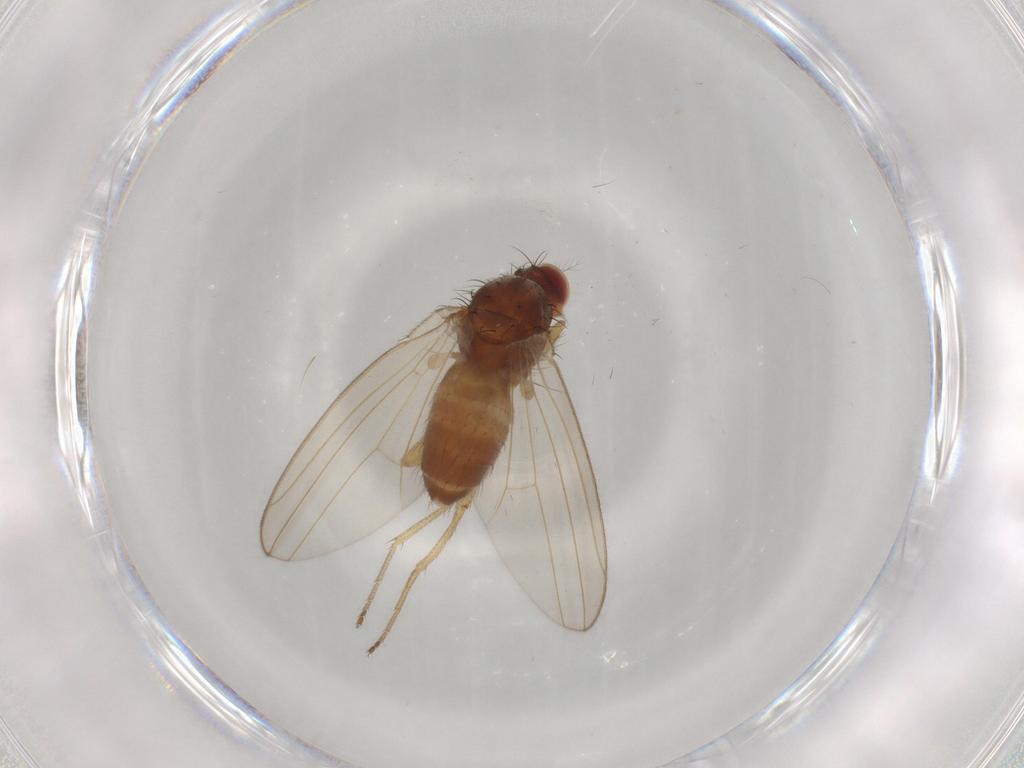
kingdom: Animalia
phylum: Arthropoda
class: Insecta
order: Diptera
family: Drosophilidae
